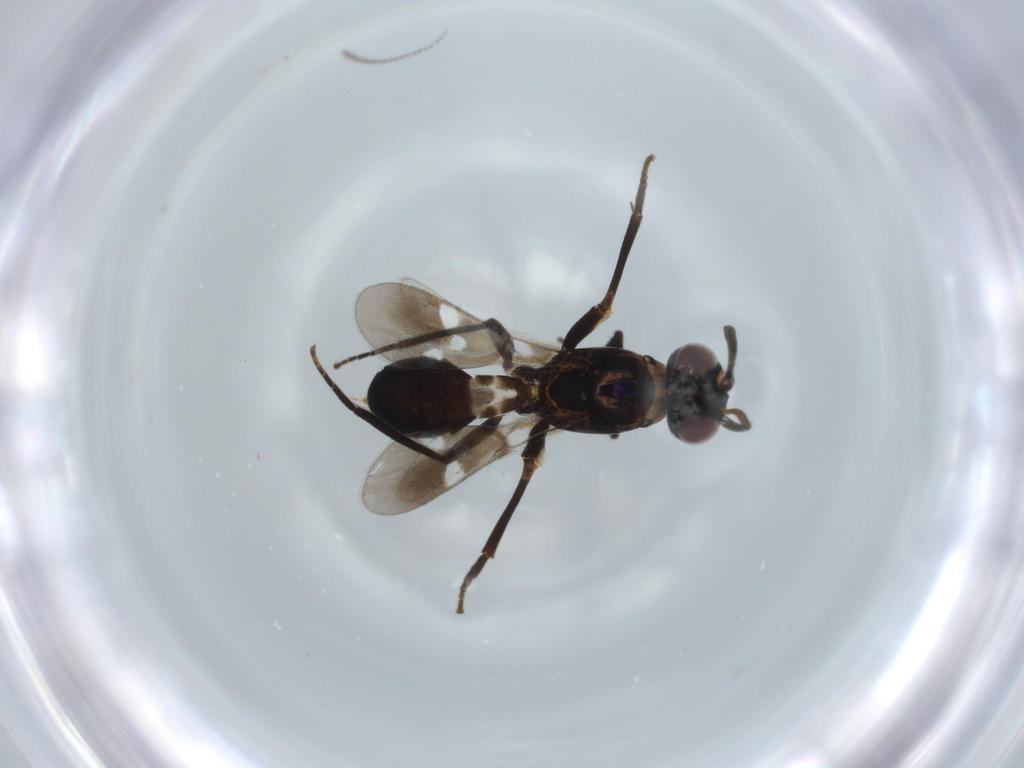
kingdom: Animalia
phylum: Arthropoda
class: Insecta
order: Hymenoptera
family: Eupelmidae
